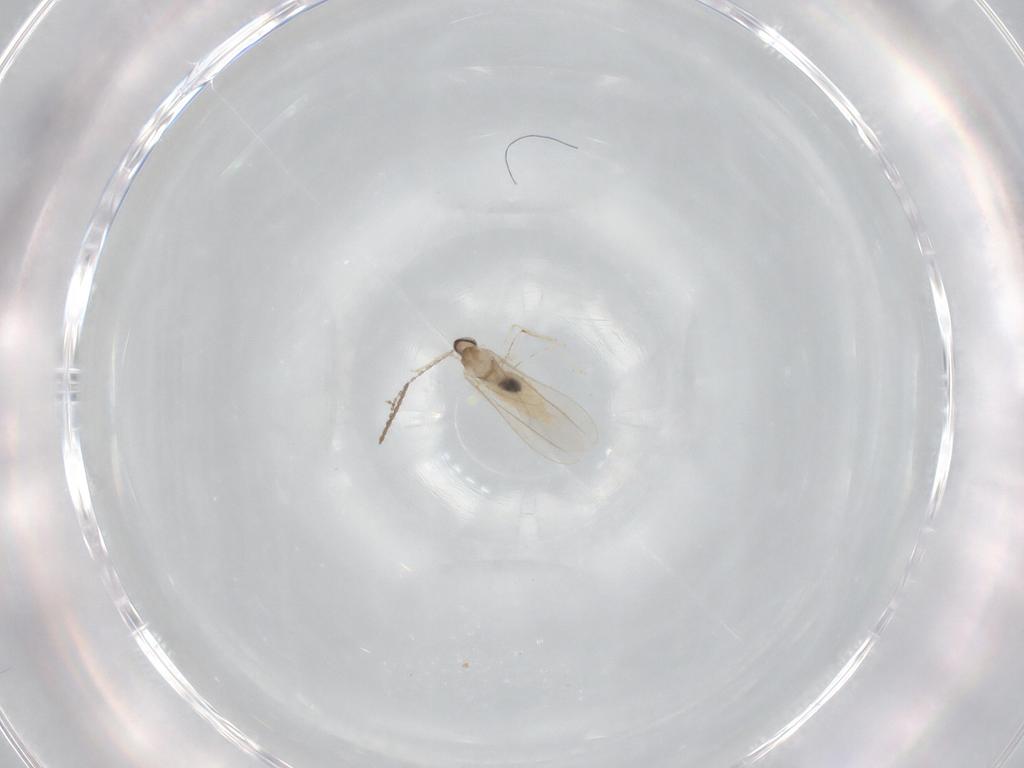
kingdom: Animalia
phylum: Arthropoda
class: Insecta
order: Diptera
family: Cecidomyiidae
